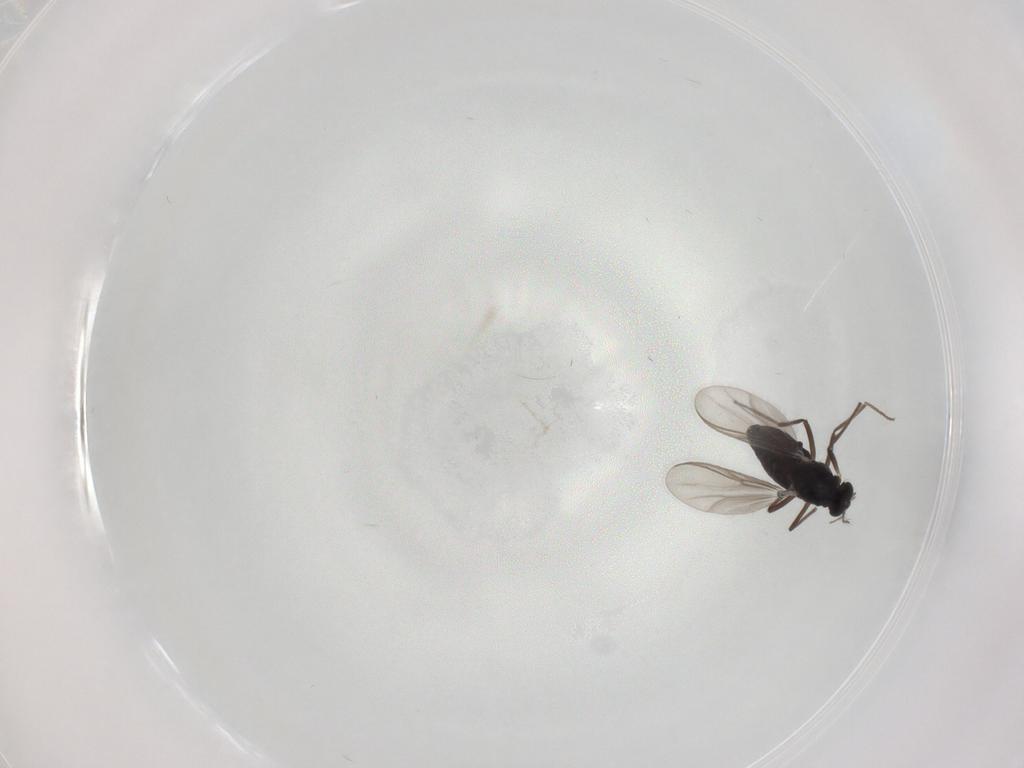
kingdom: Animalia
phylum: Arthropoda
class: Insecta
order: Diptera
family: Chironomidae
